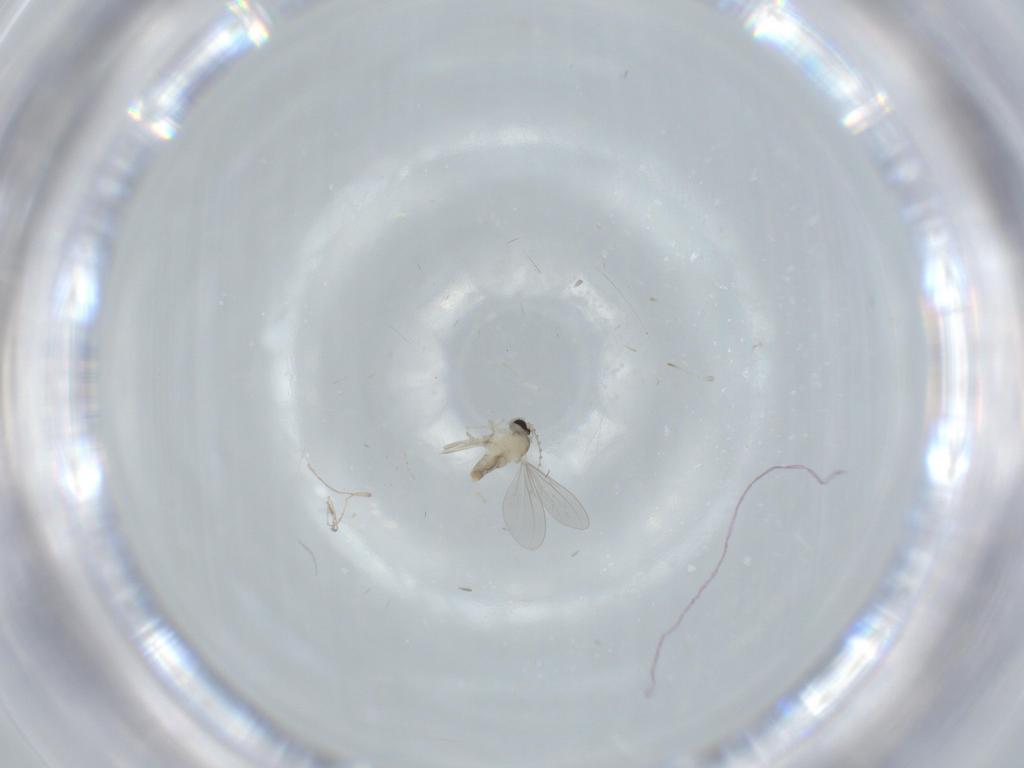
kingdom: Animalia
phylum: Arthropoda
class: Insecta
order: Diptera
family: Cecidomyiidae
